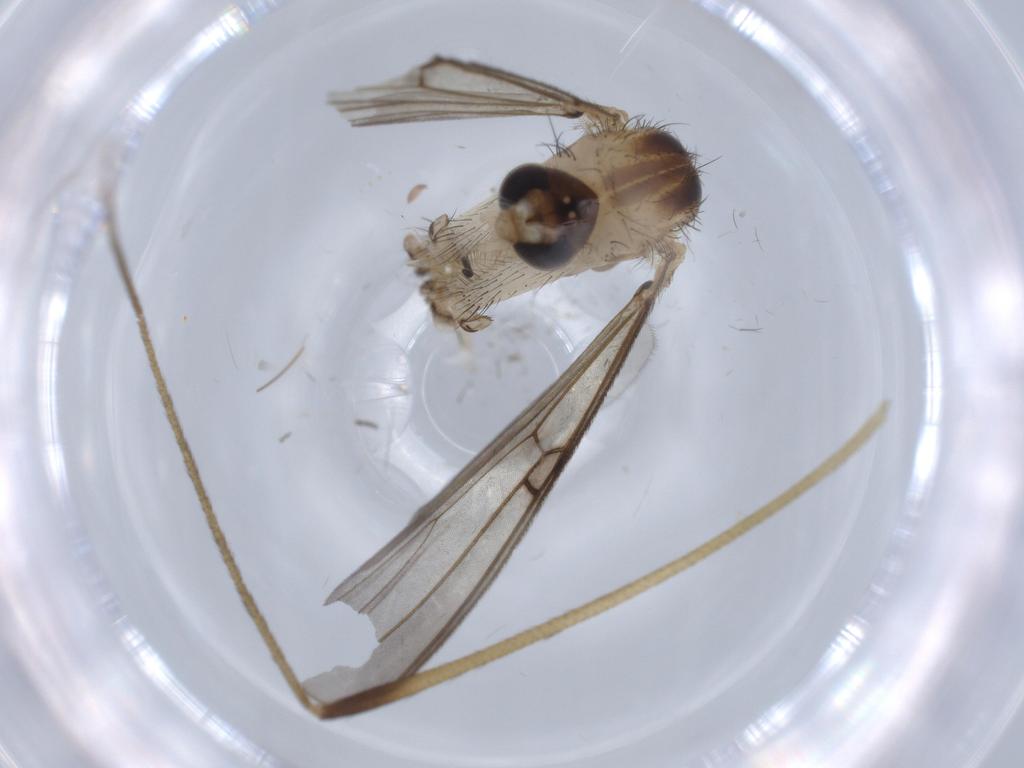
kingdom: Animalia
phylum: Arthropoda
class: Insecta
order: Diptera
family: Mycetophilidae
